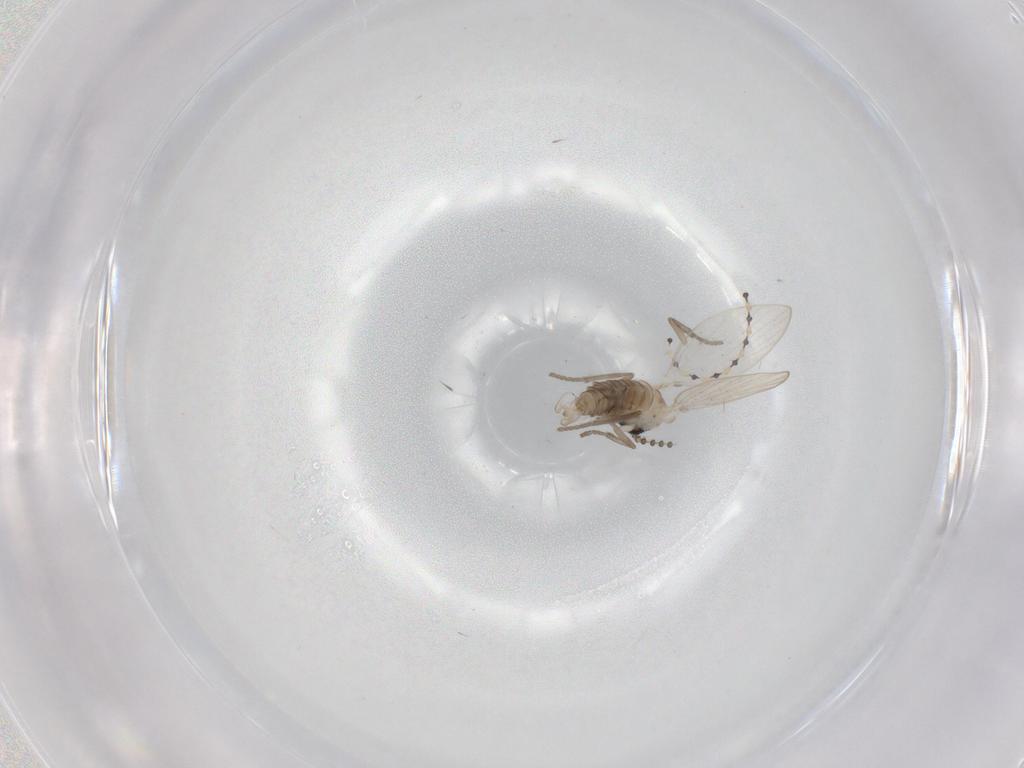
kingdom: Animalia
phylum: Arthropoda
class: Insecta
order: Diptera
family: Psychodidae
